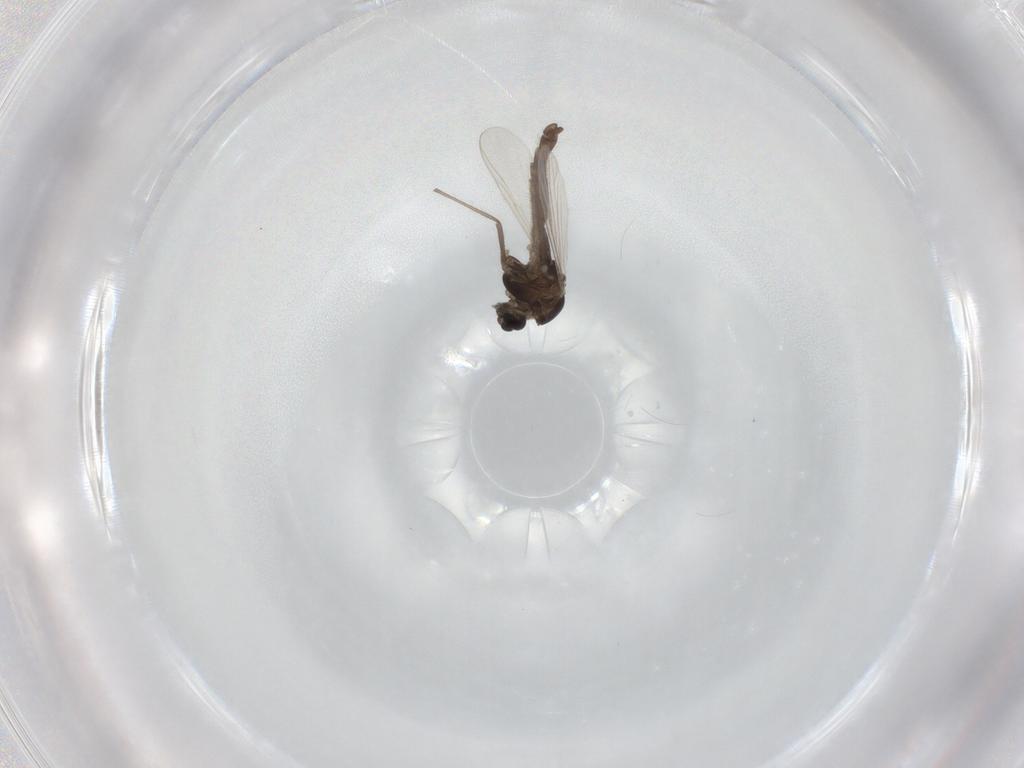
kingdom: Animalia
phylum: Arthropoda
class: Insecta
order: Diptera
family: Chironomidae
